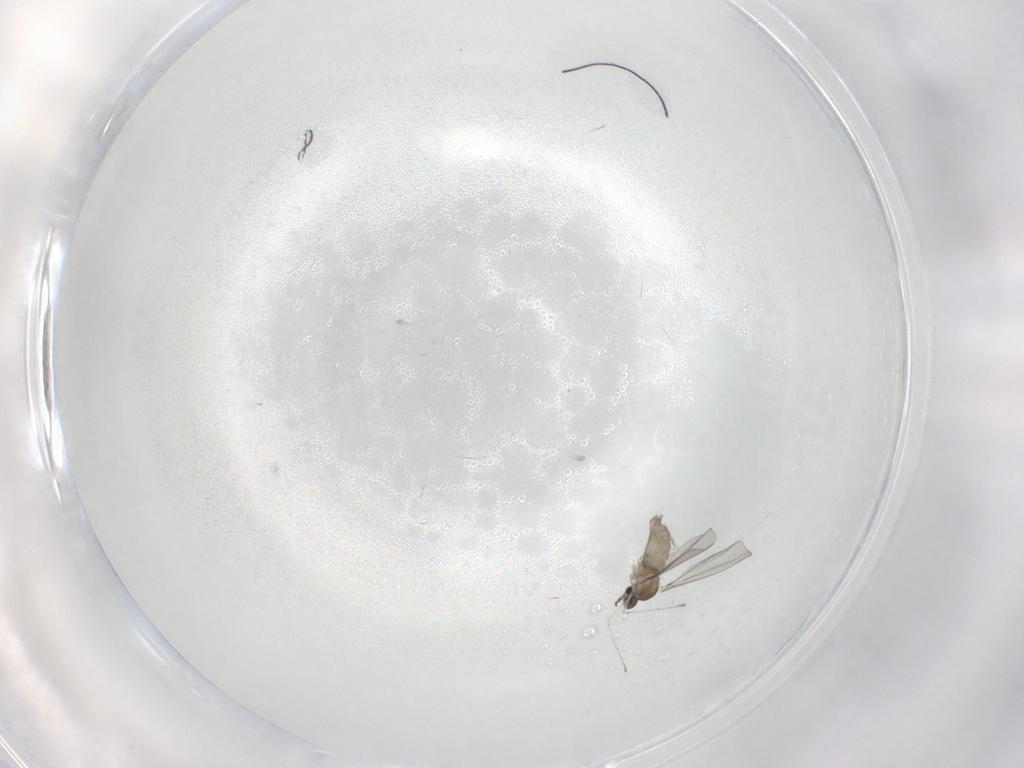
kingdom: Animalia
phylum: Arthropoda
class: Insecta
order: Diptera
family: Cecidomyiidae
